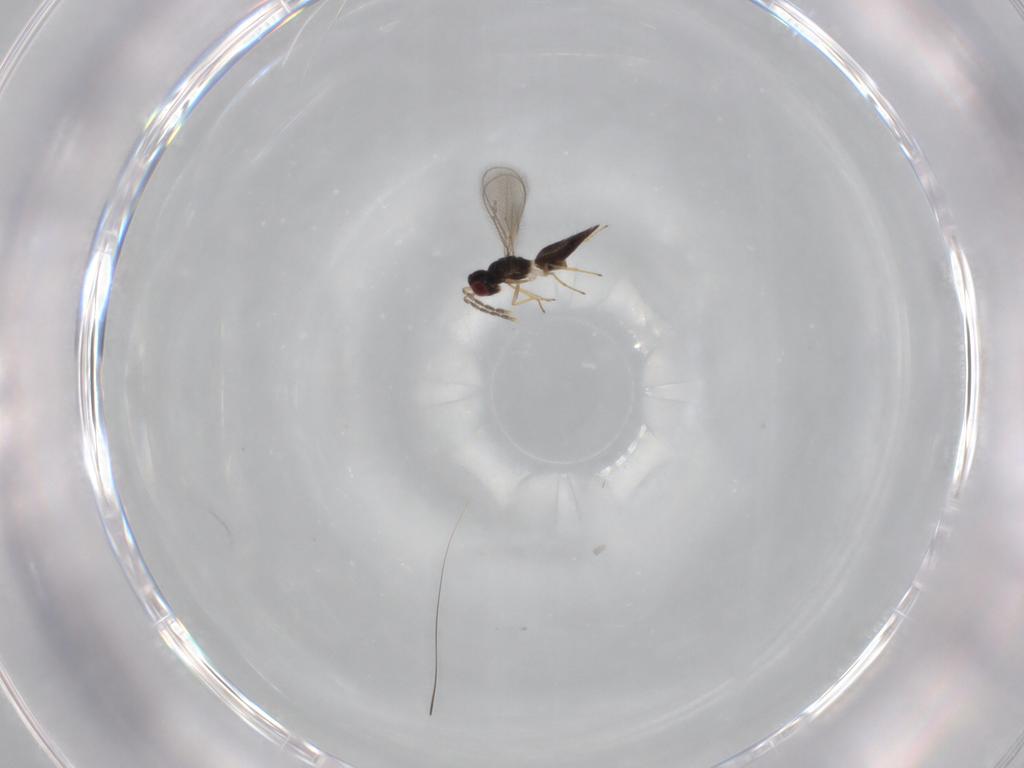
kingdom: Animalia
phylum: Arthropoda
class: Insecta
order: Hymenoptera
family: Eulophidae
